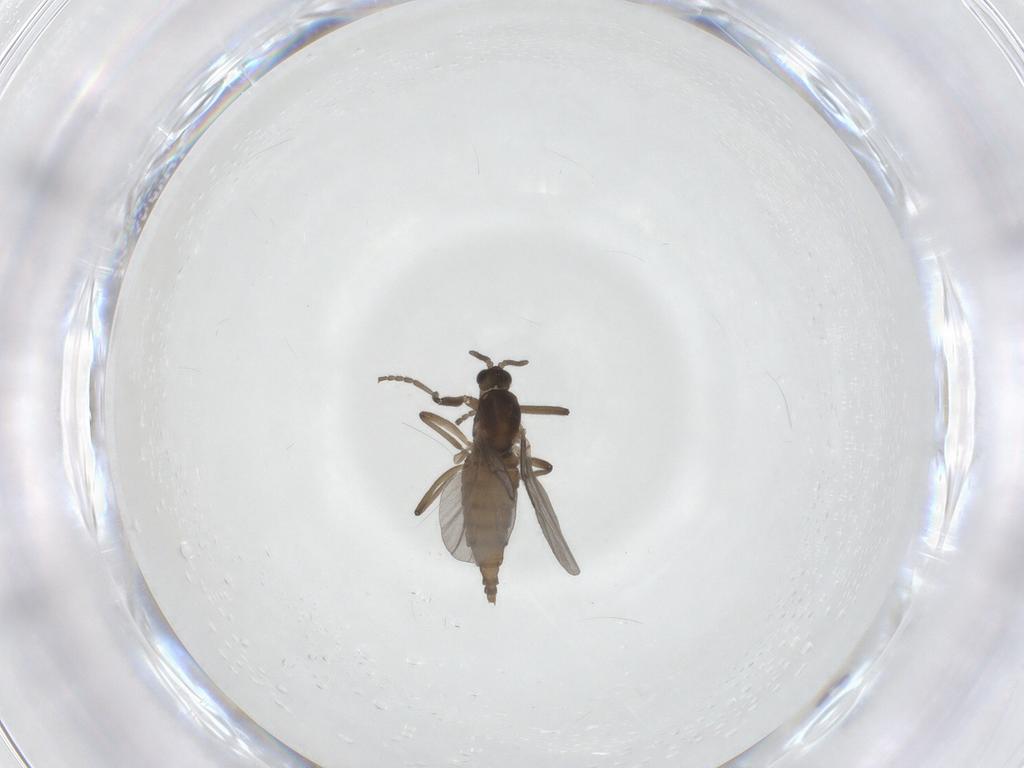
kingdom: Animalia
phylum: Arthropoda
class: Insecta
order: Diptera
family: Cecidomyiidae
